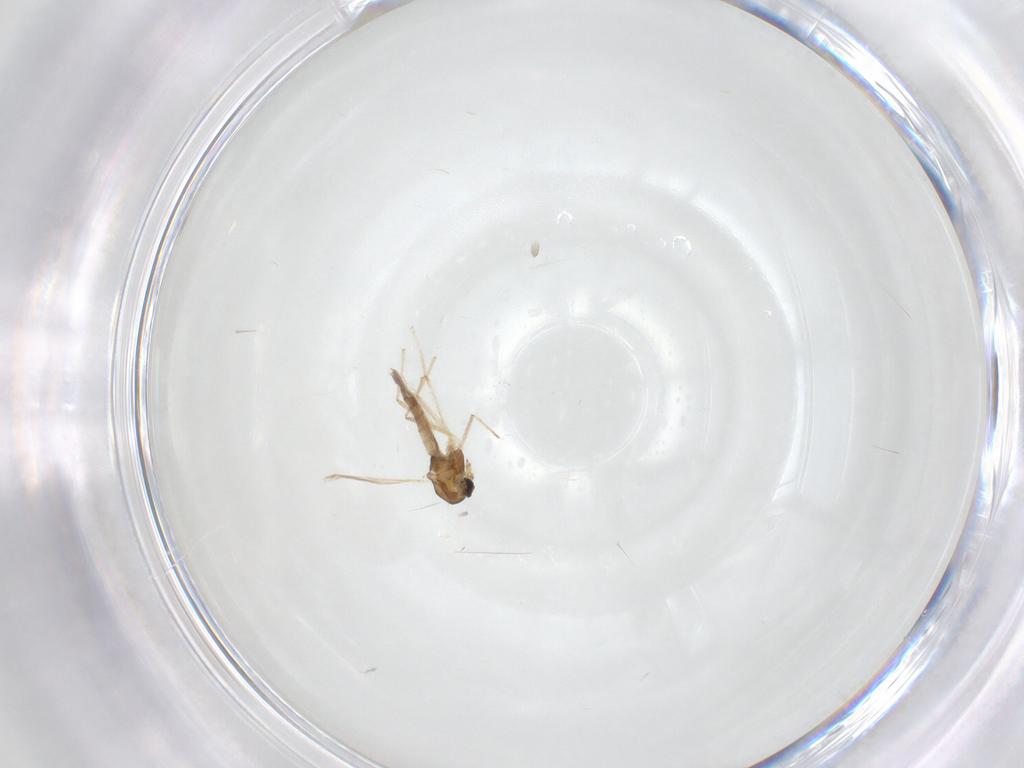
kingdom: Animalia
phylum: Arthropoda
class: Insecta
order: Diptera
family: Chironomidae
